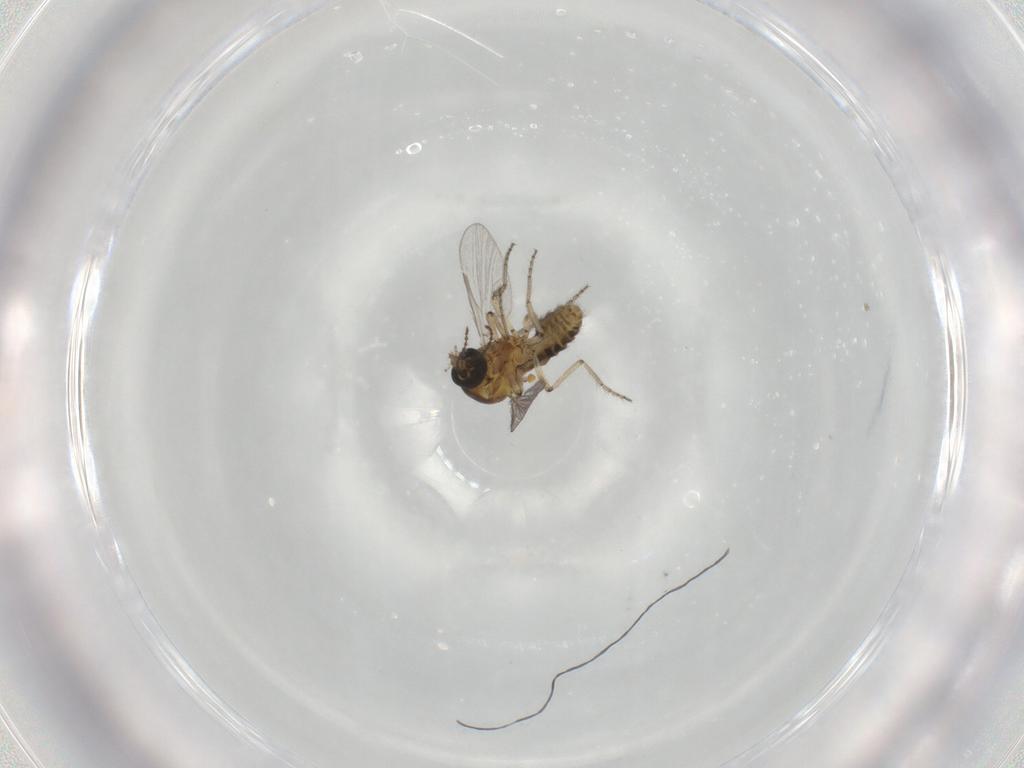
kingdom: Animalia
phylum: Arthropoda
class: Insecta
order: Diptera
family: Ceratopogonidae
